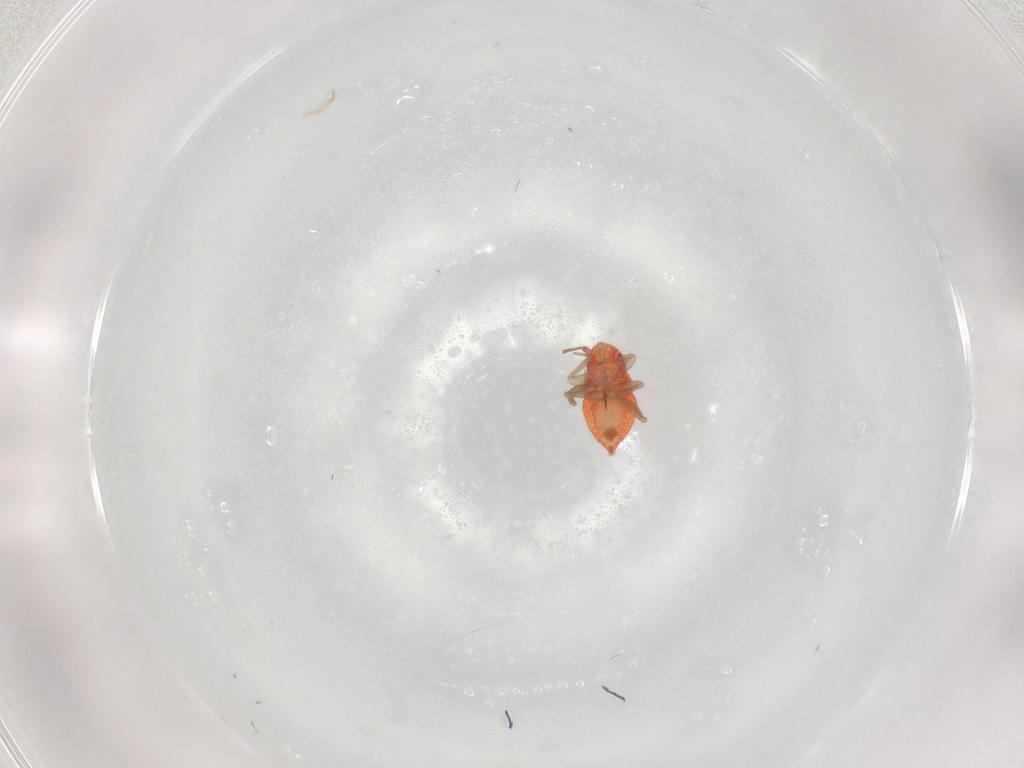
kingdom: Animalia
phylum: Arthropoda
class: Insecta
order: Hemiptera
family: Miridae
